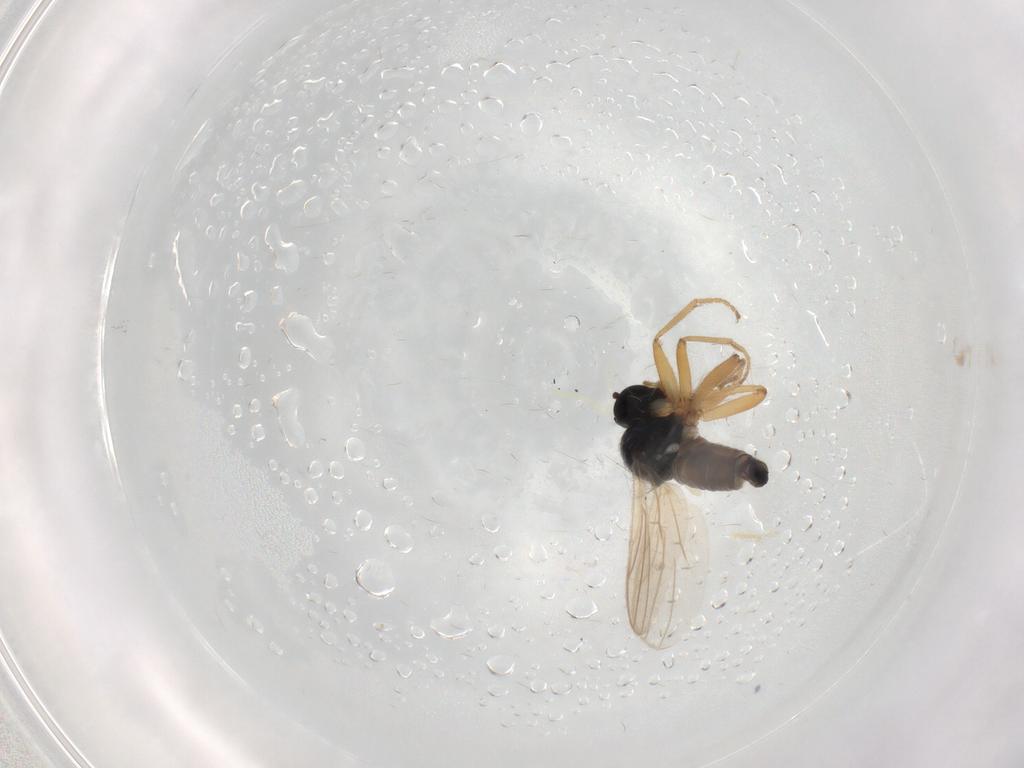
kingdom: Animalia
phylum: Arthropoda
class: Insecta
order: Diptera
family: Hybotidae
